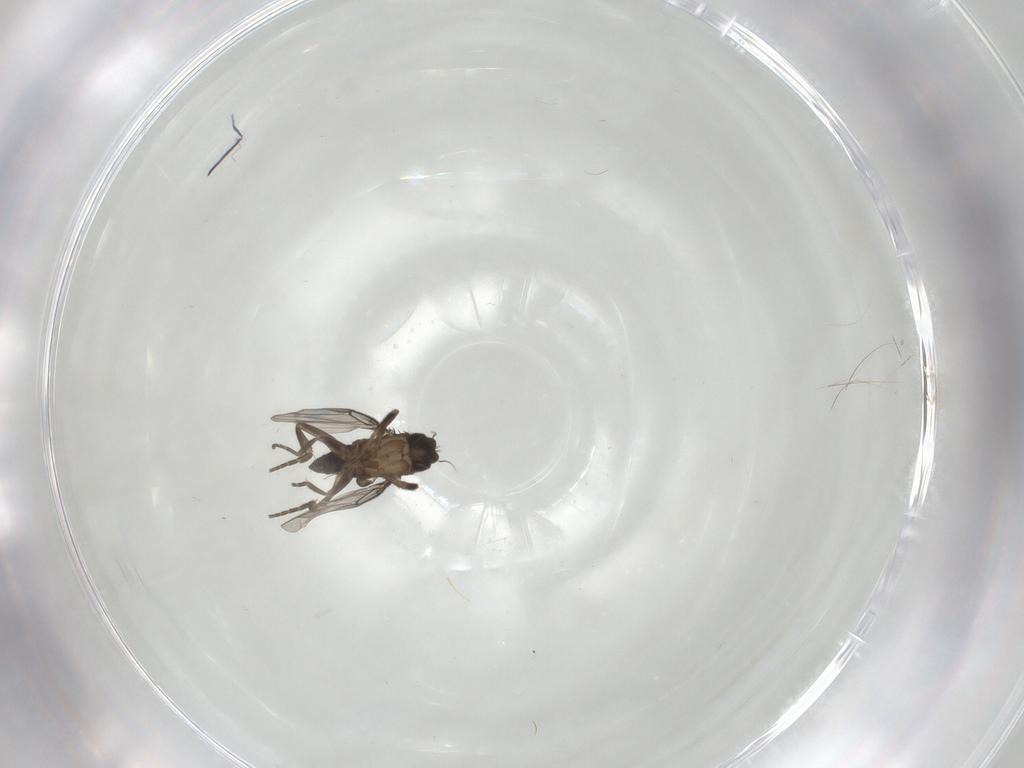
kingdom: Animalia
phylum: Arthropoda
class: Insecta
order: Diptera
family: Phoridae
